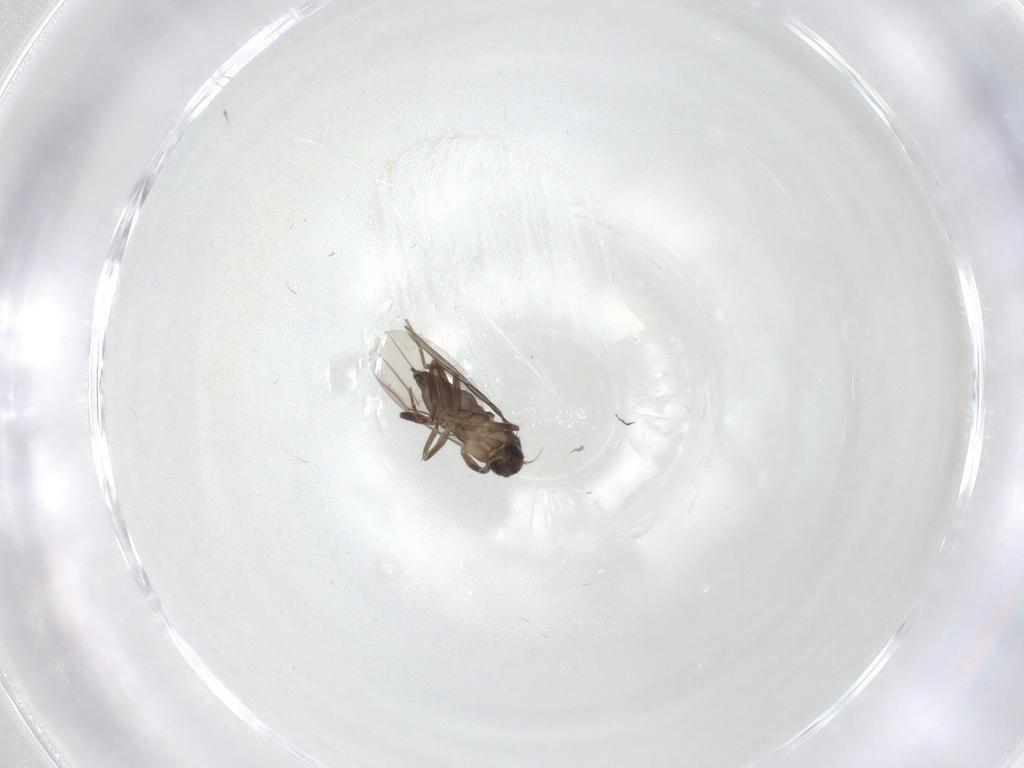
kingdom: Animalia
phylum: Arthropoda
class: Insecta
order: Diptera
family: Phoridae
